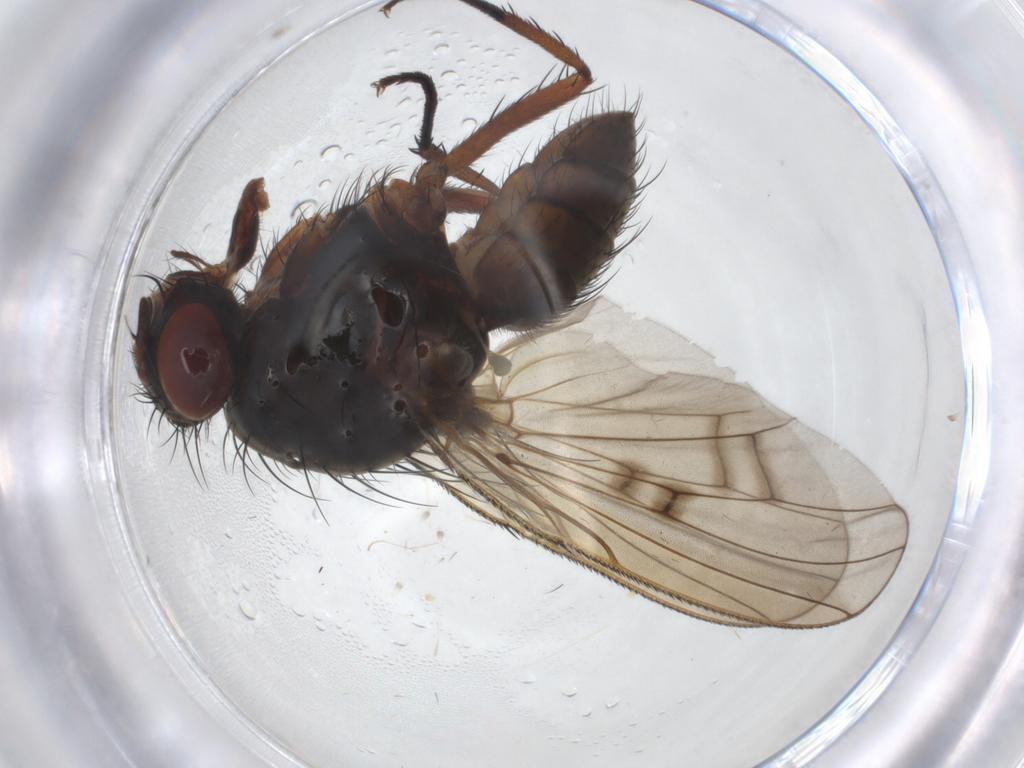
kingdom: Animalia
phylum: Arthropoda
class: Insecta
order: Diptera
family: Anthomyiidae
